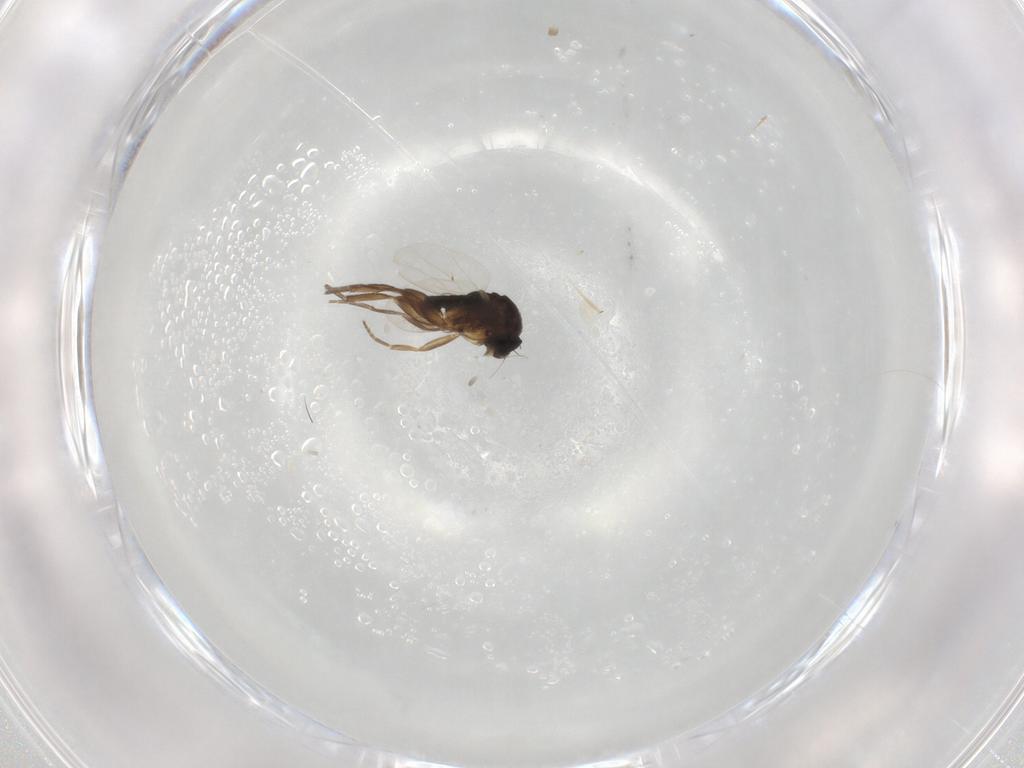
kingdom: Animalia
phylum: Arthropoda
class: Insecta
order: Diptera
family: Phoridae
